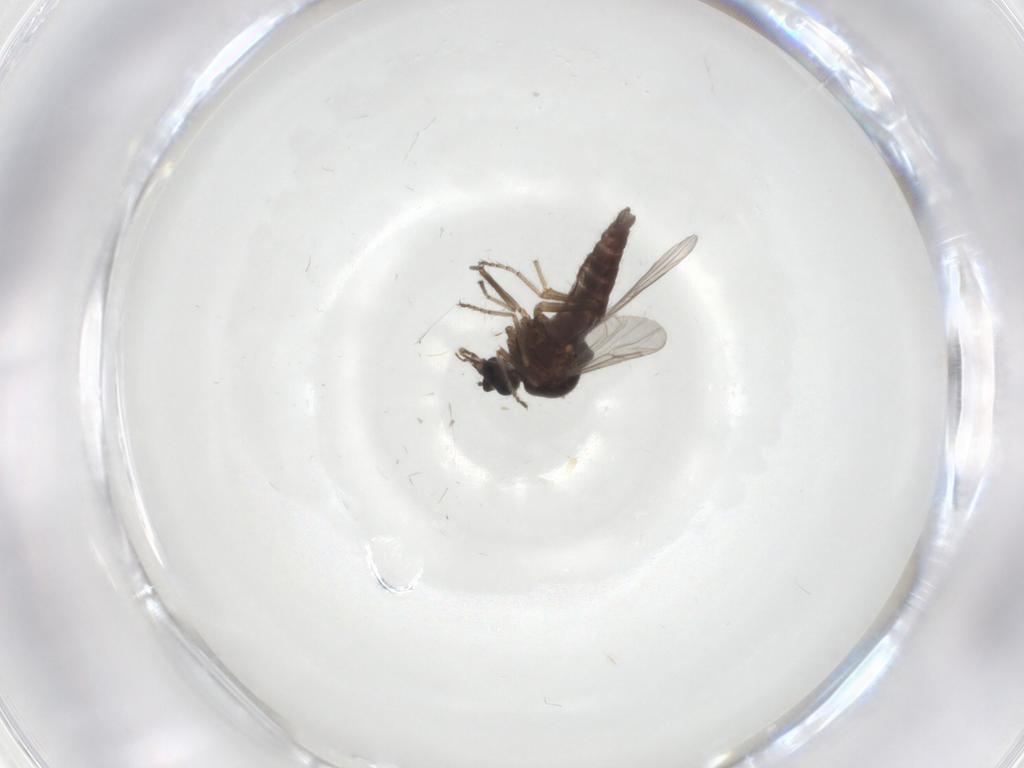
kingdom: Animalia
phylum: Arthropoda
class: Insecta
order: Diptera
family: Ceratopogonidae
